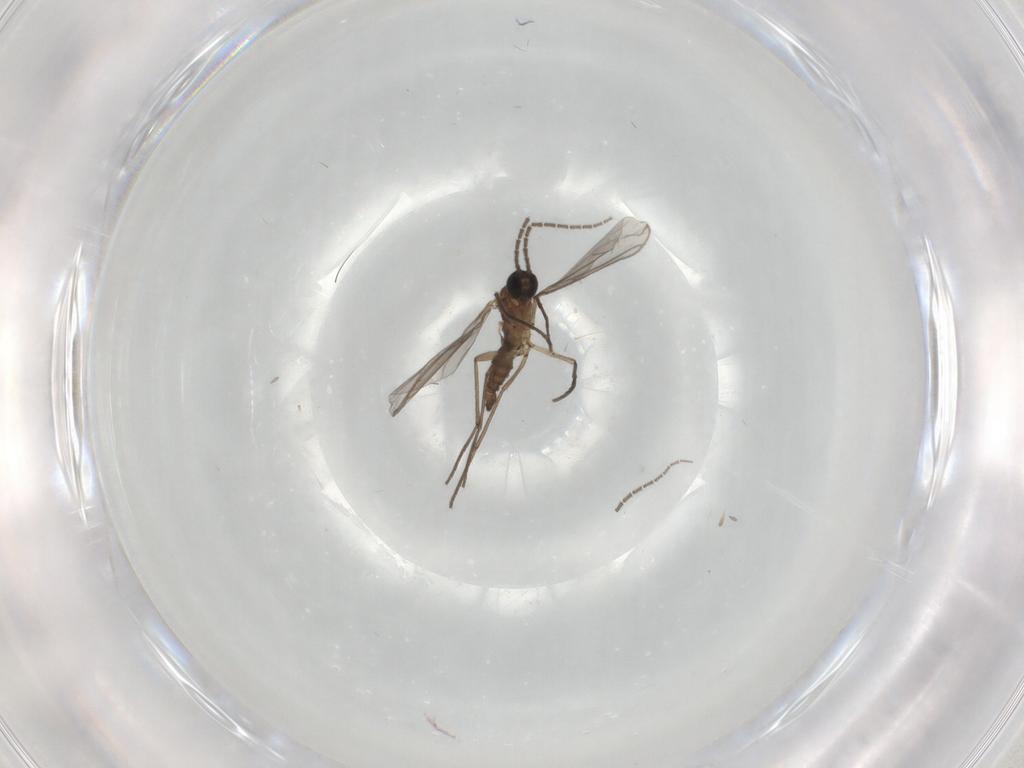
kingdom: Animalia
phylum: Arthropoda
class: Insecta
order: Diptera
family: Sciaridae
